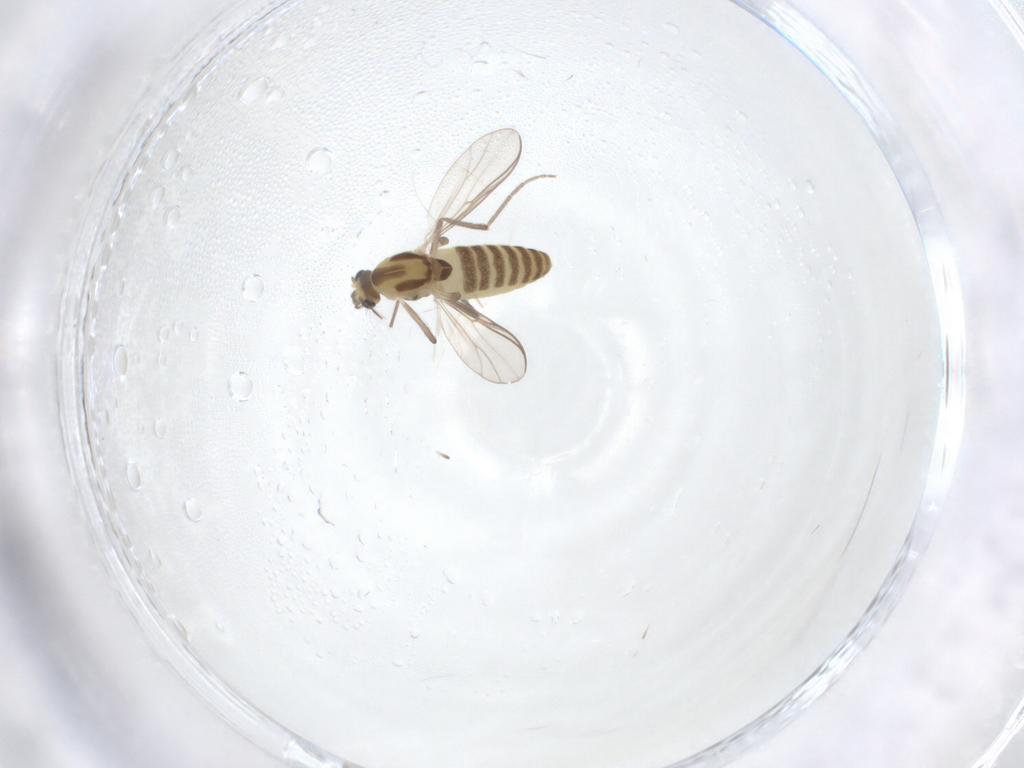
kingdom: Animalia
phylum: Arthropoda
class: Insecta
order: Diptera
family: Chironomidae
